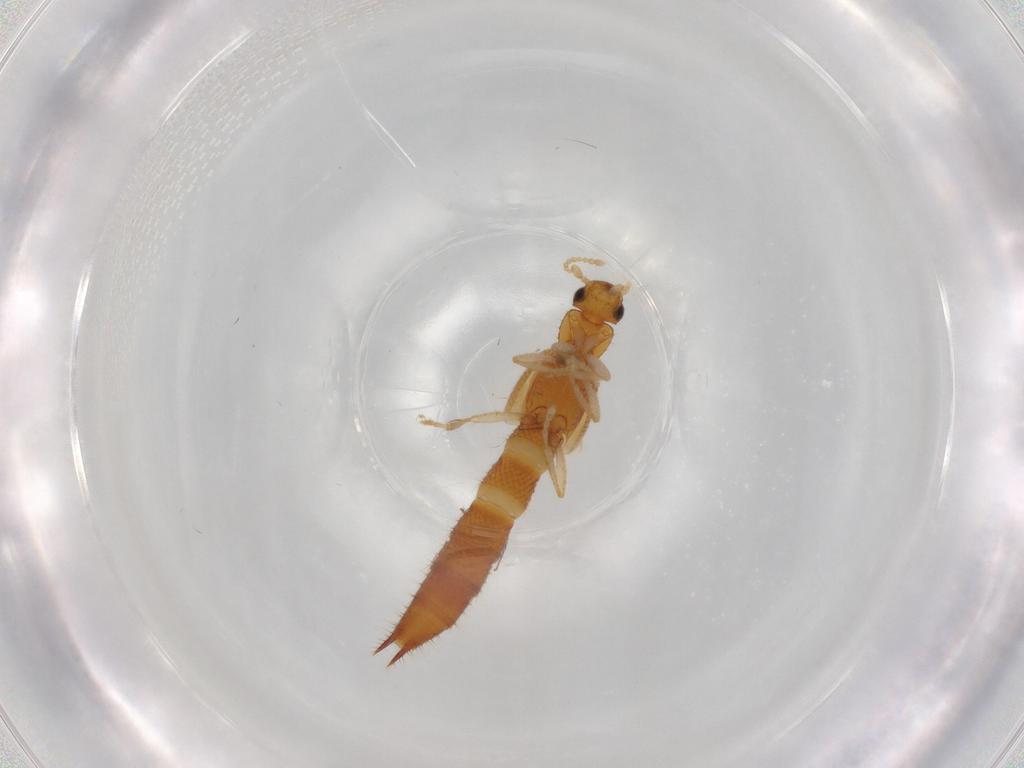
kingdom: Animalia
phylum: Arthropoda
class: Insecta
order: Coleoptera
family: Staphylinidae
